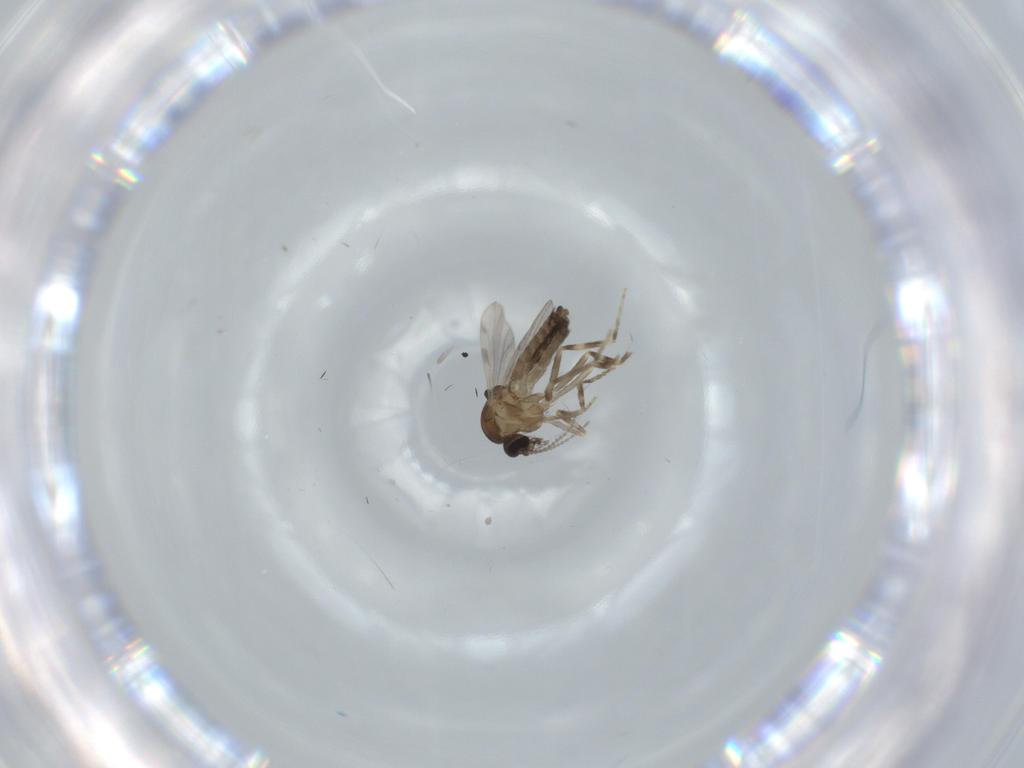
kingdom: Animalia
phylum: Arthropoda
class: Insecta
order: Diptera
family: Ceratopogonidae
